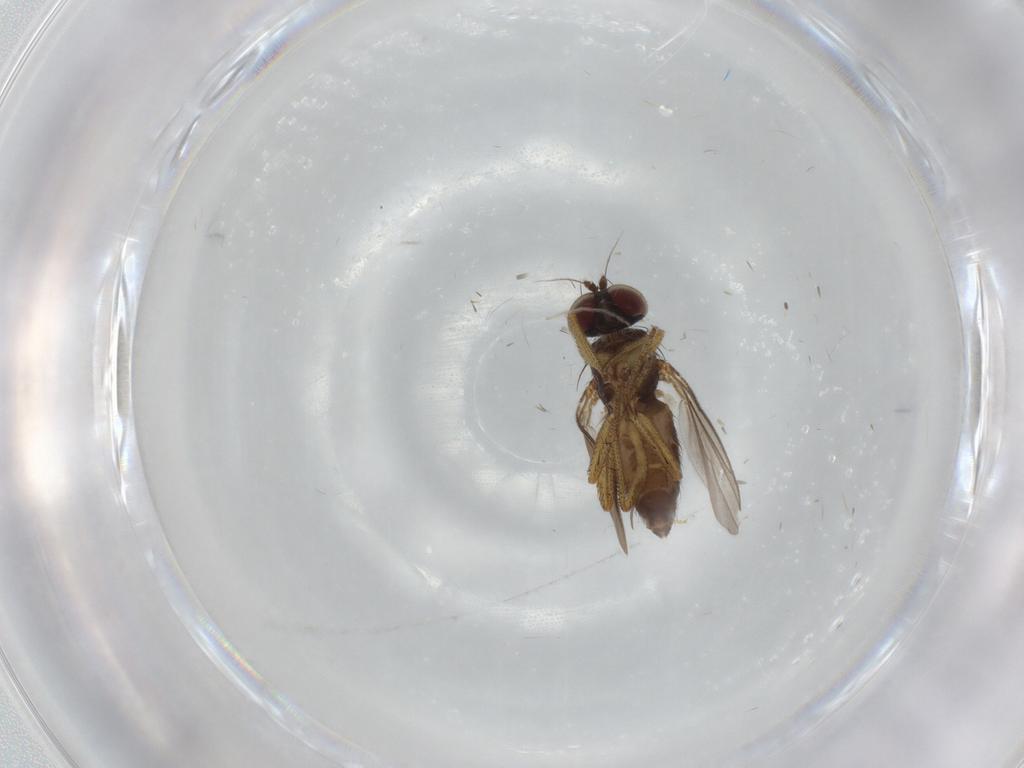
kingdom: Animalia
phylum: Arthropoda
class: Insecta
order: Diptera
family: Dolichopodidae
